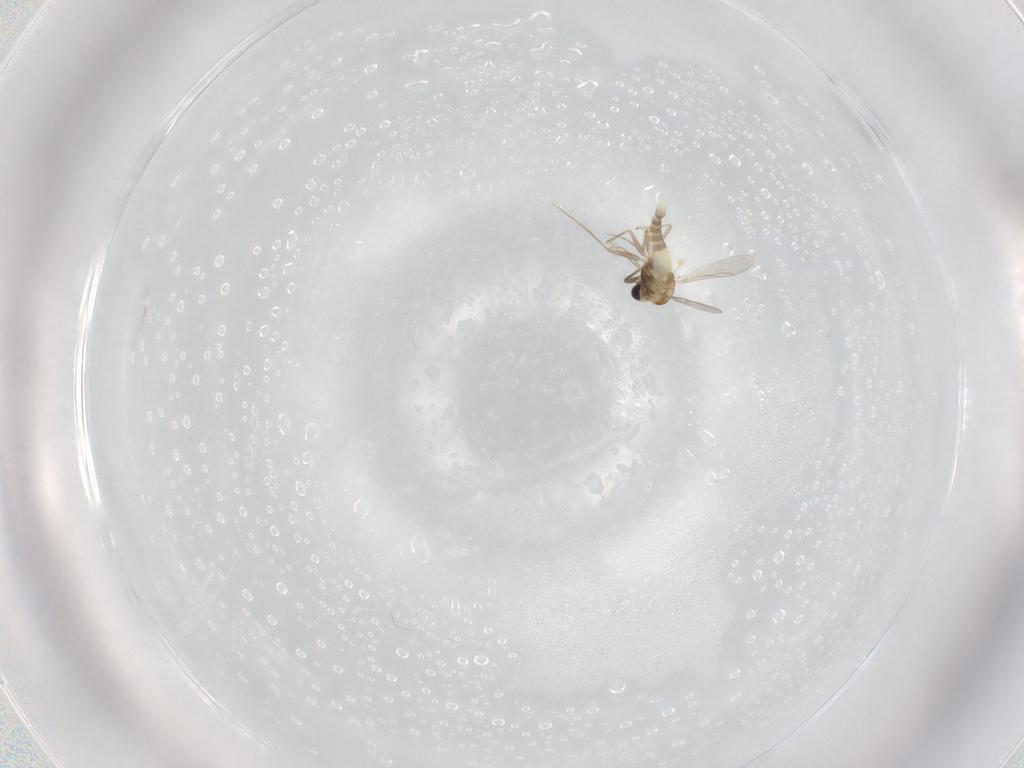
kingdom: Animalia
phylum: Arthropoda
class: Insecta
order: Diptera
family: Chironomidae
